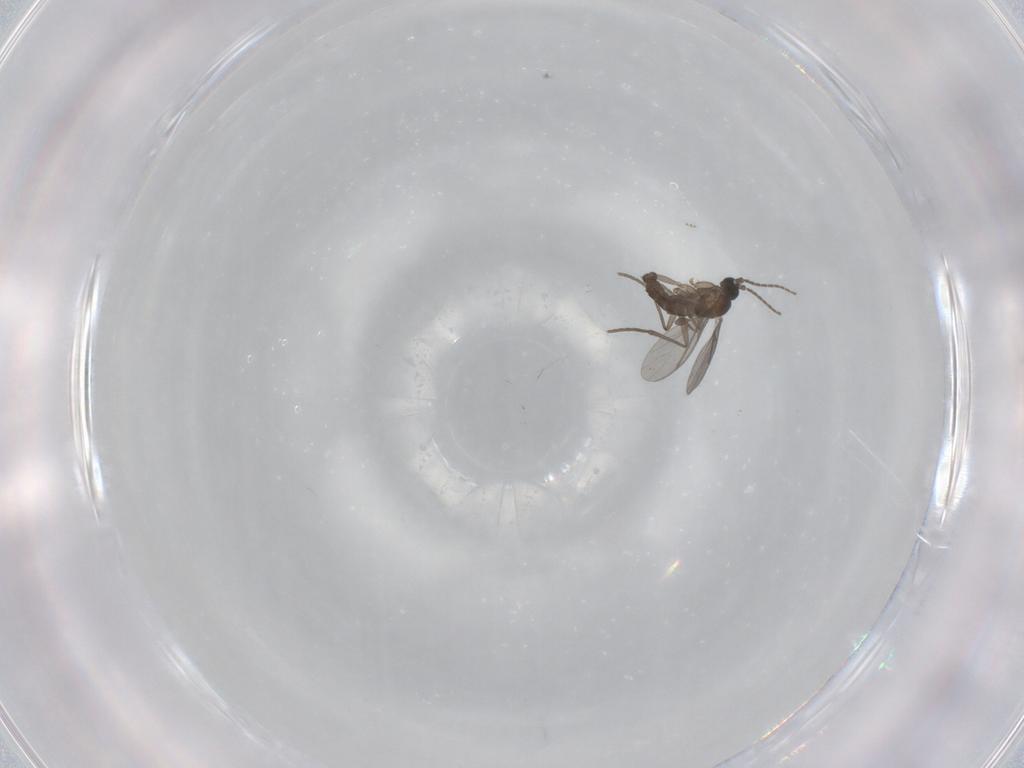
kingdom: Animalia
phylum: Arthropoda
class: Insecta
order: Diptera
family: Sciaridae
